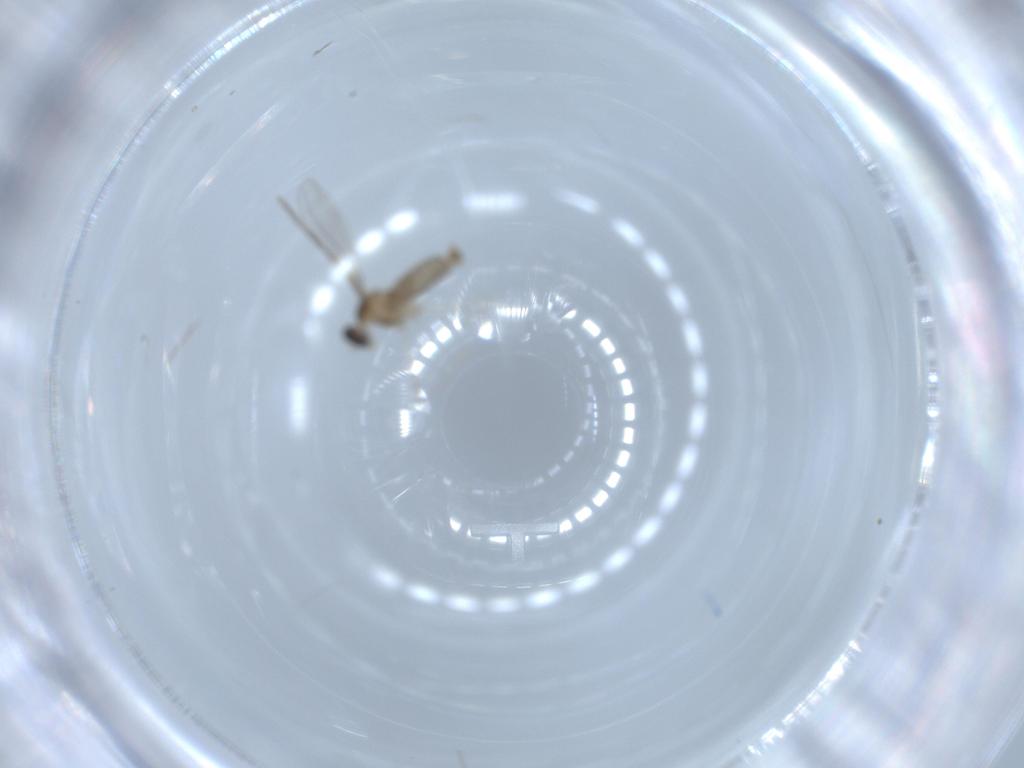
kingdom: Animalia
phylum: Arthropoda
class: Insecta
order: Diptera
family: Cecidomyiidae
